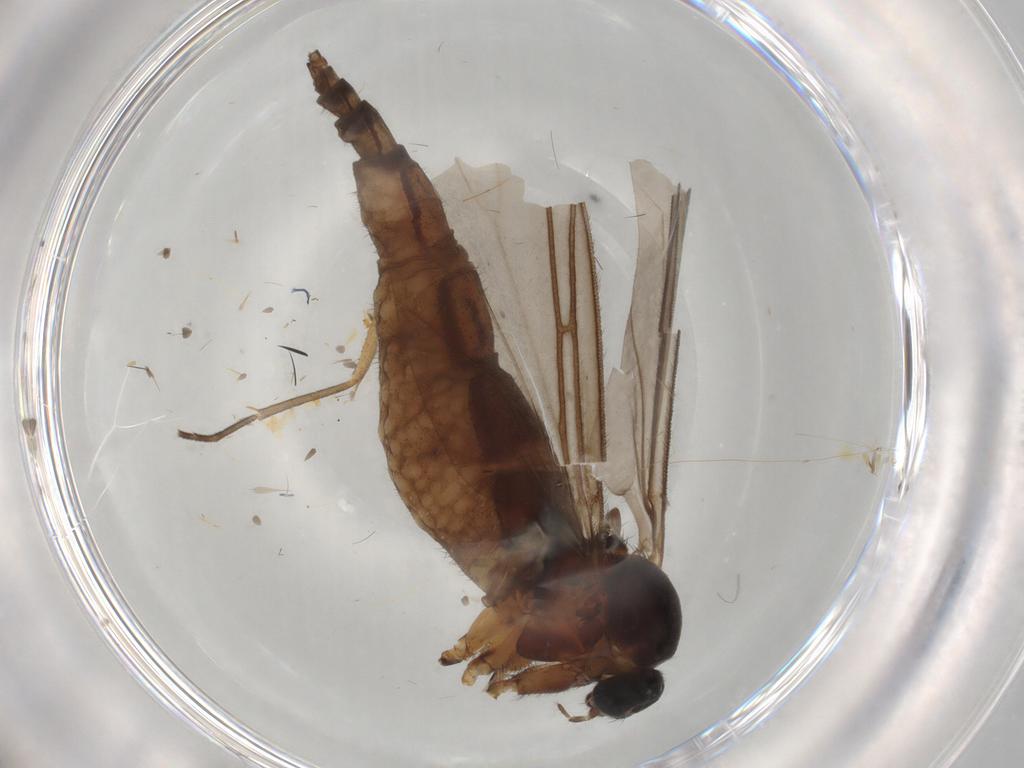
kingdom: Animalia
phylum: Arthropoda
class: Insecta
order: Diptera
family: Sciaridae
